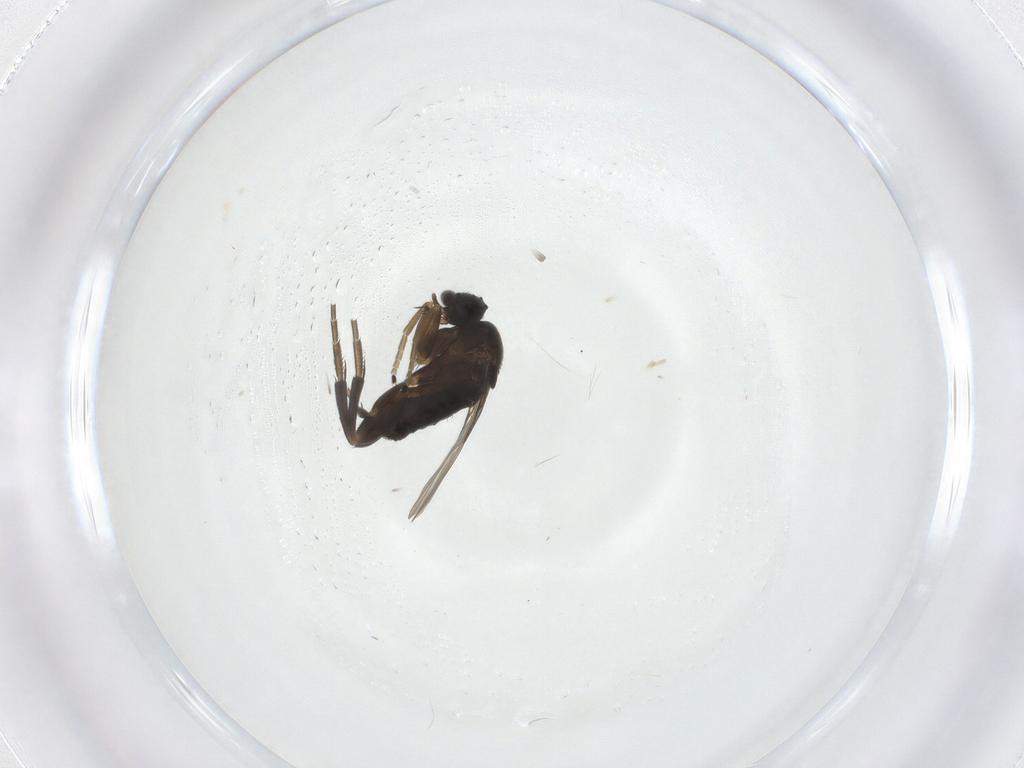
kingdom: Animalia
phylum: Arthropoda
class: Insecta
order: Diptera
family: Phoridae
